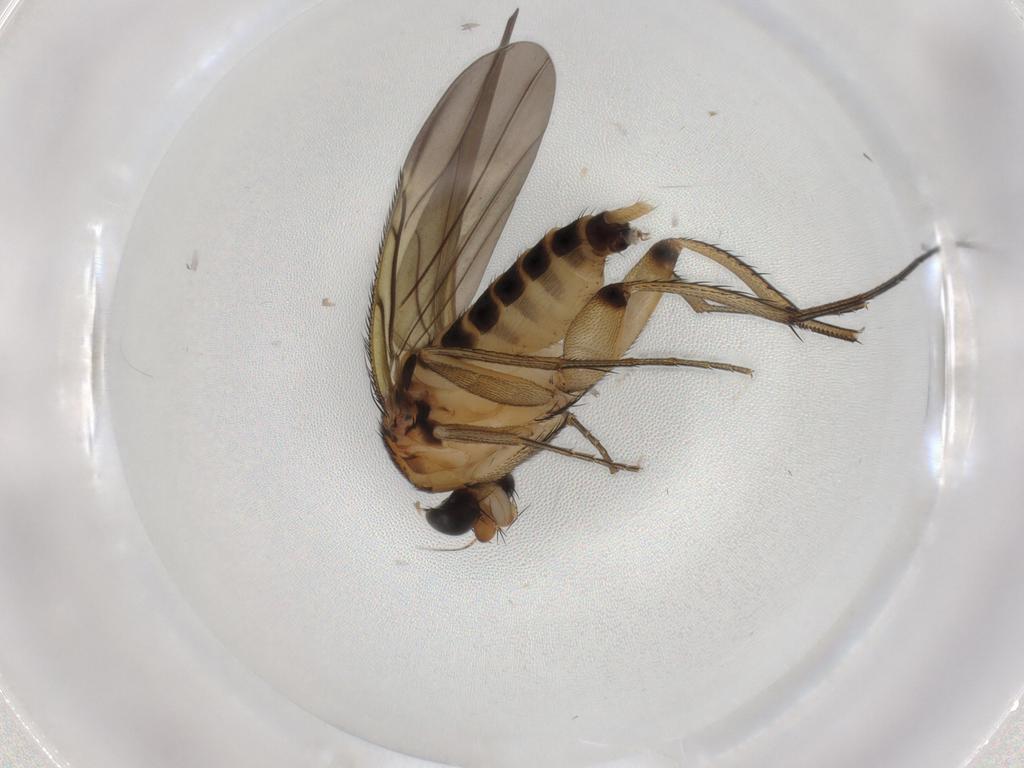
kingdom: Animalia
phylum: Arthropoda
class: Insecta
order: Diptera
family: Phoridae
